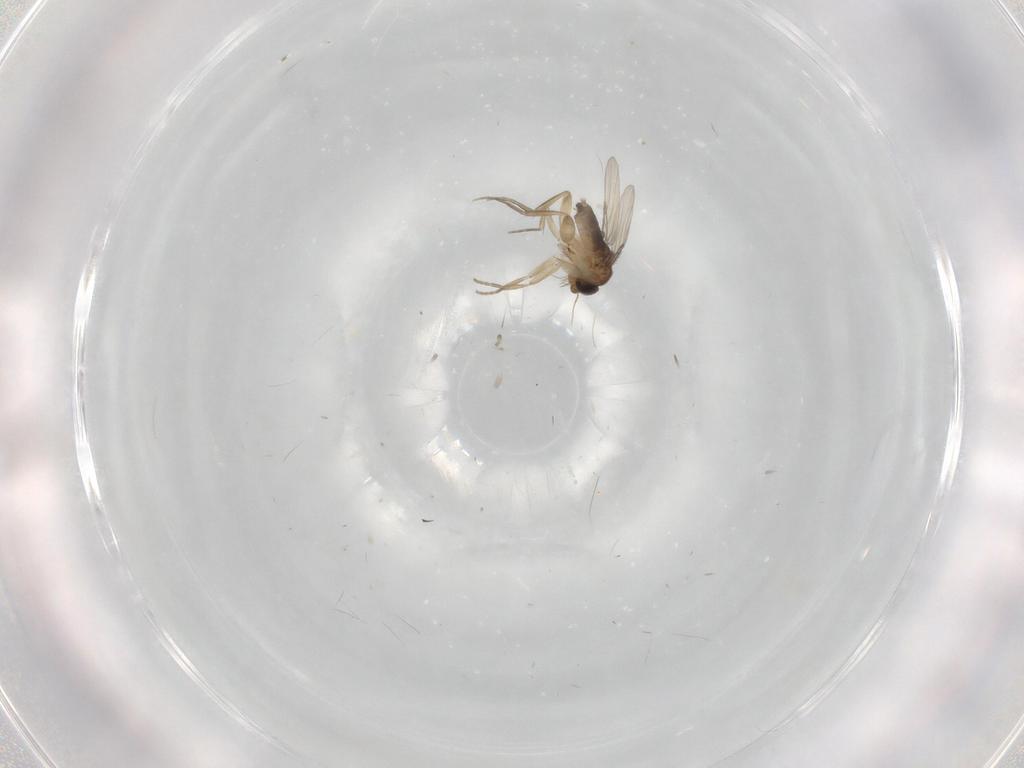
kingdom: Animalia
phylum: Arthropoda
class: Insecta
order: Diptera
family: Phoridae
